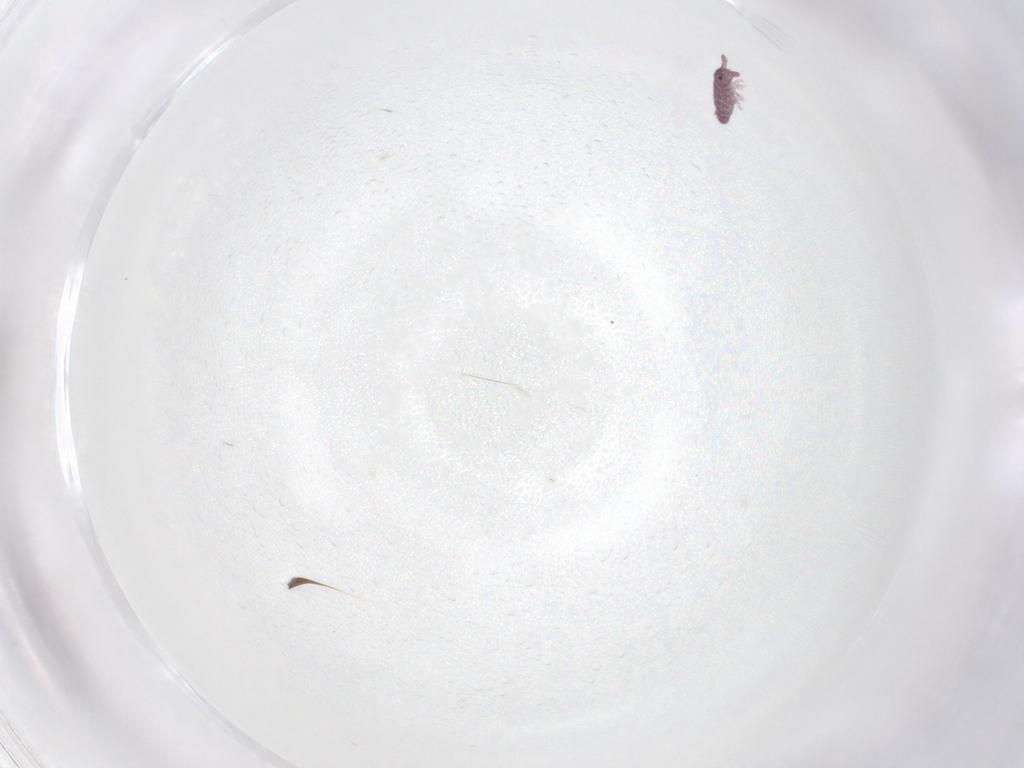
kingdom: Animalia
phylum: Arthropoda
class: Collembola
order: Poduromorpha
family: Hypogastruridae
